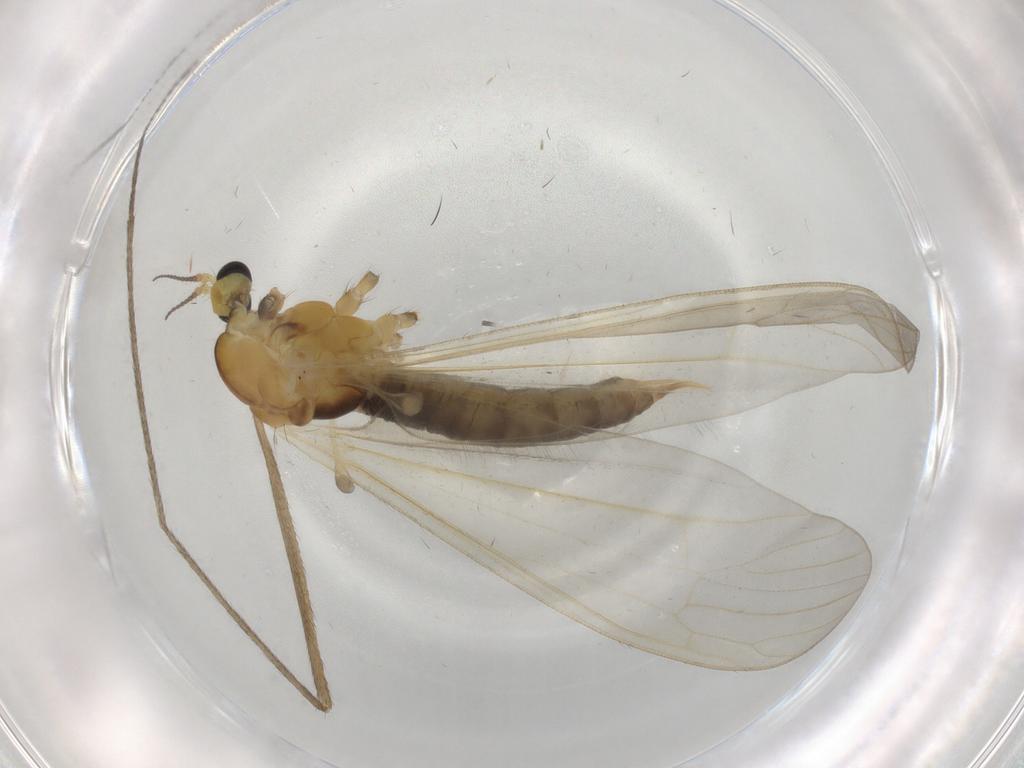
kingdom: Animalia
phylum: Arthropoda
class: Insecta
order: Diptera
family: Limoniidae
